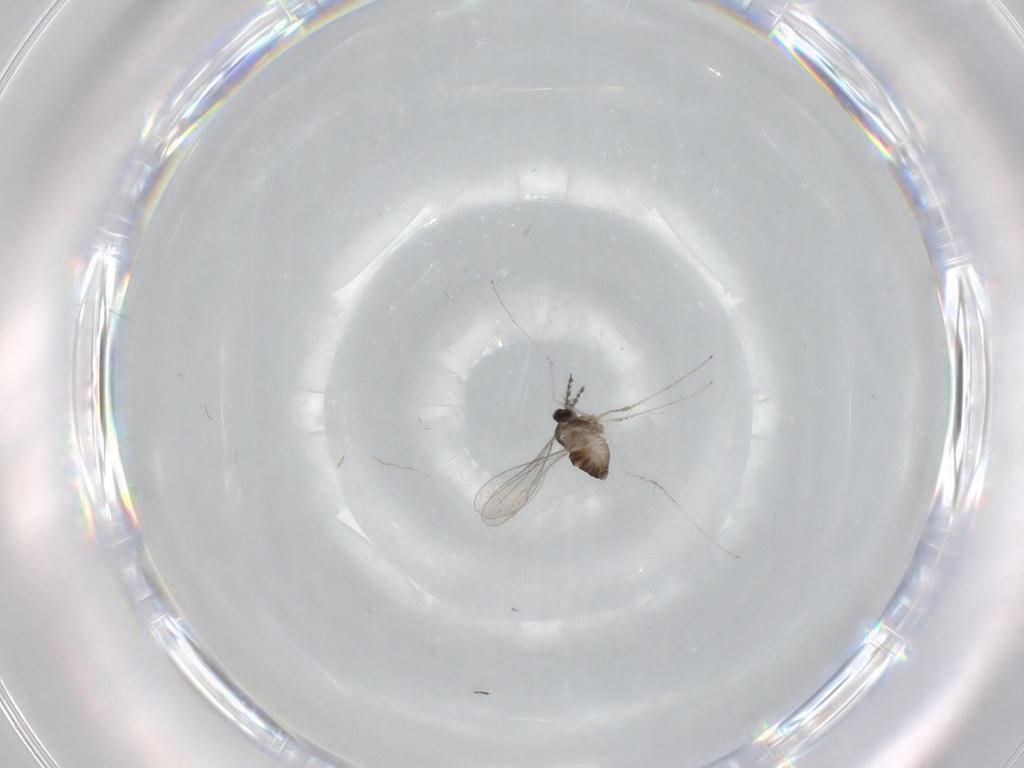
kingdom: Animalia
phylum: Arthropoda
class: Insecta
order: Diptera
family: Cecidomyiidae
